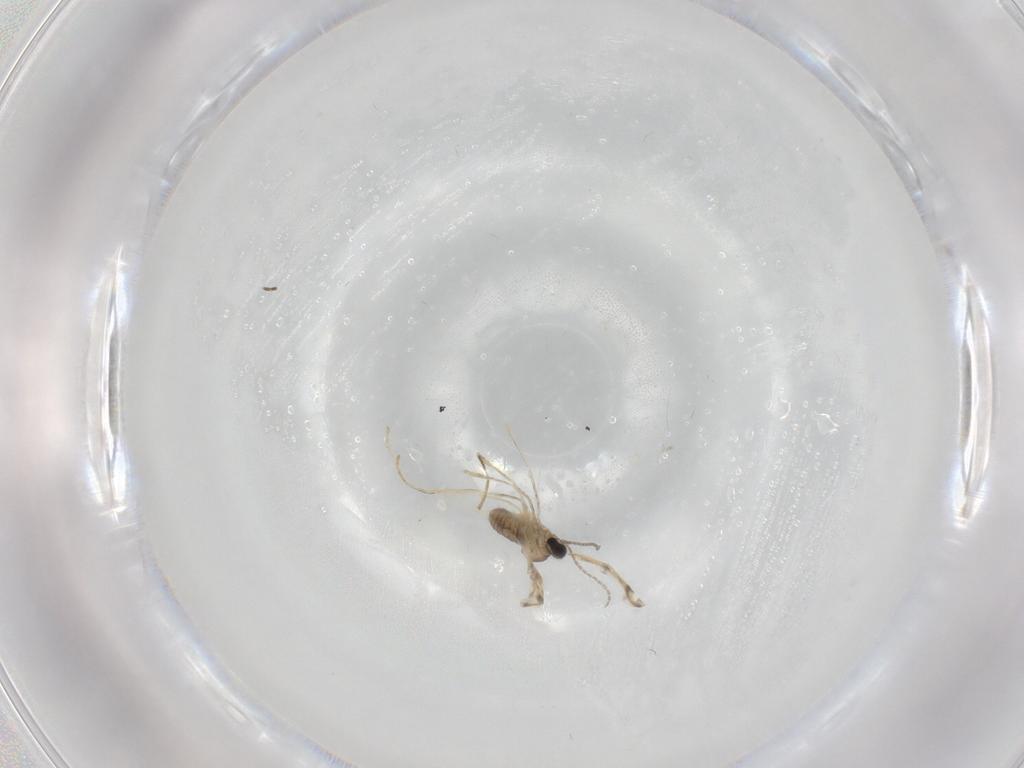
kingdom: Animalia
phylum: Arthropoda
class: Insecta
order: Diptera
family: Cecidomyiidae
